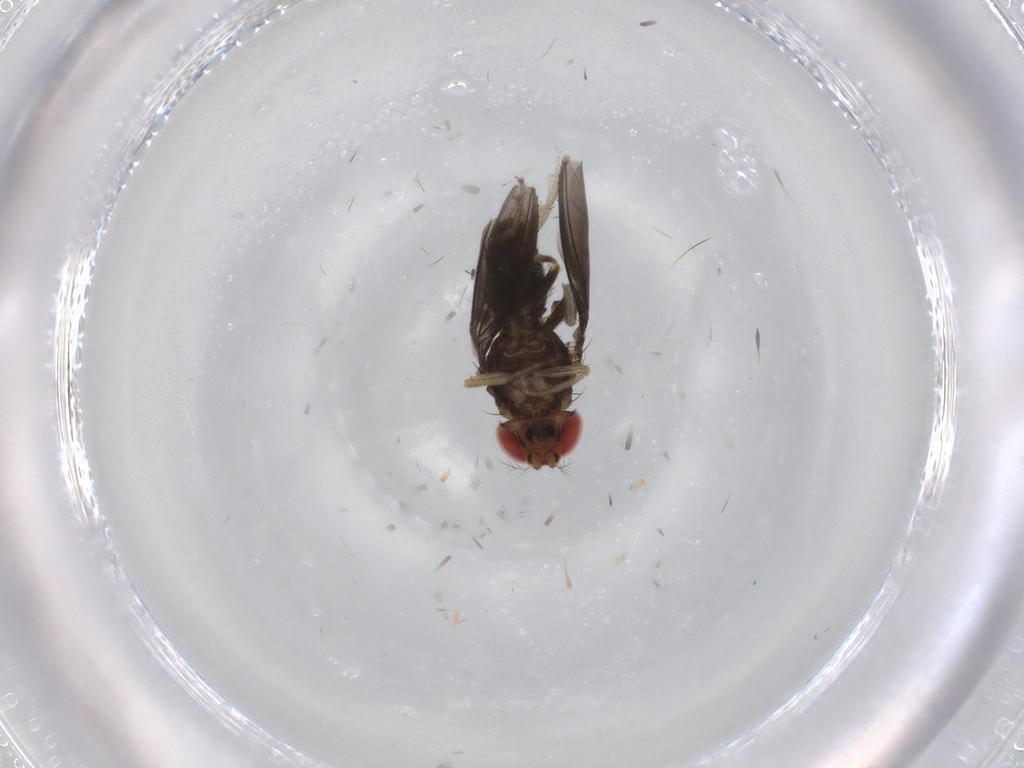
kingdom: Animalia
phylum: Arthropoda
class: Insecta
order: Diptera
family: Drosophilidae
